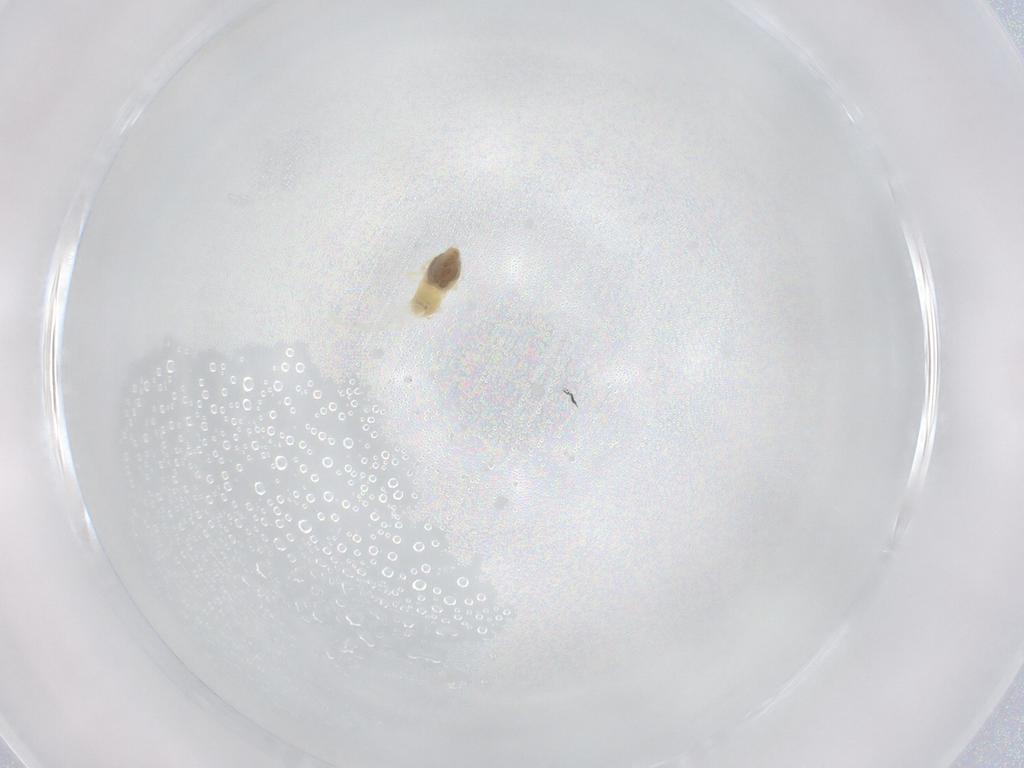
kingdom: Animalia
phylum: Arthropoda
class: Insecta
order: Hemiptera
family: Aleyrodidae
